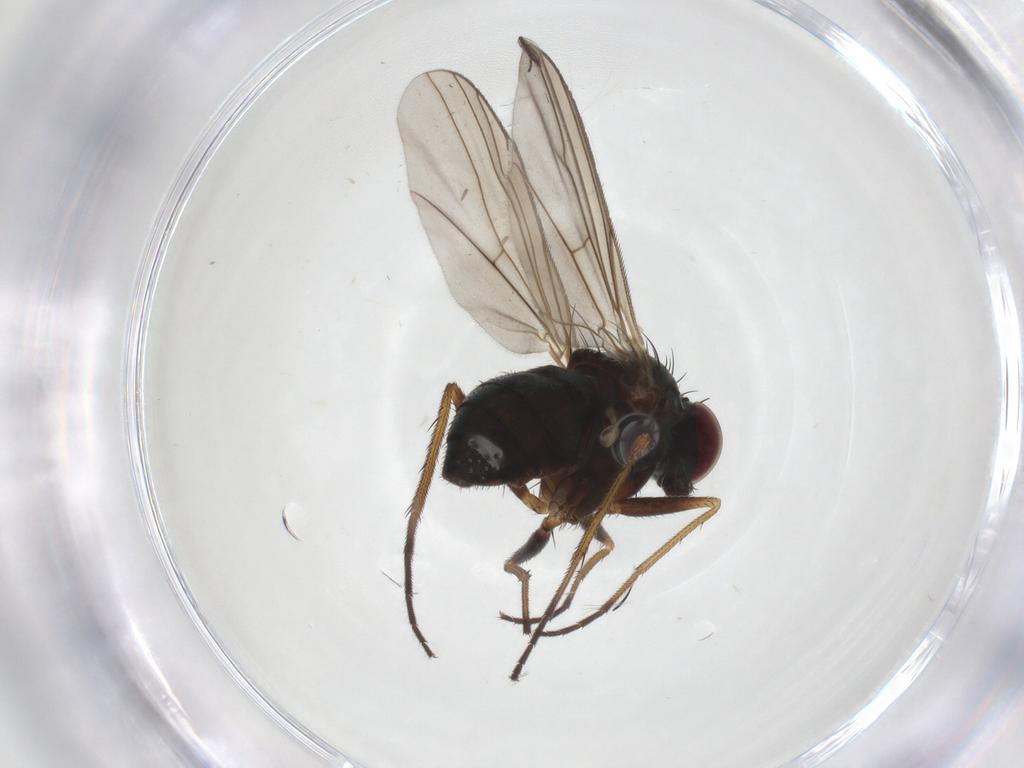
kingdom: Animalia
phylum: Arthropoda
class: Insecta
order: Diptera
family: Dolichopodidae
